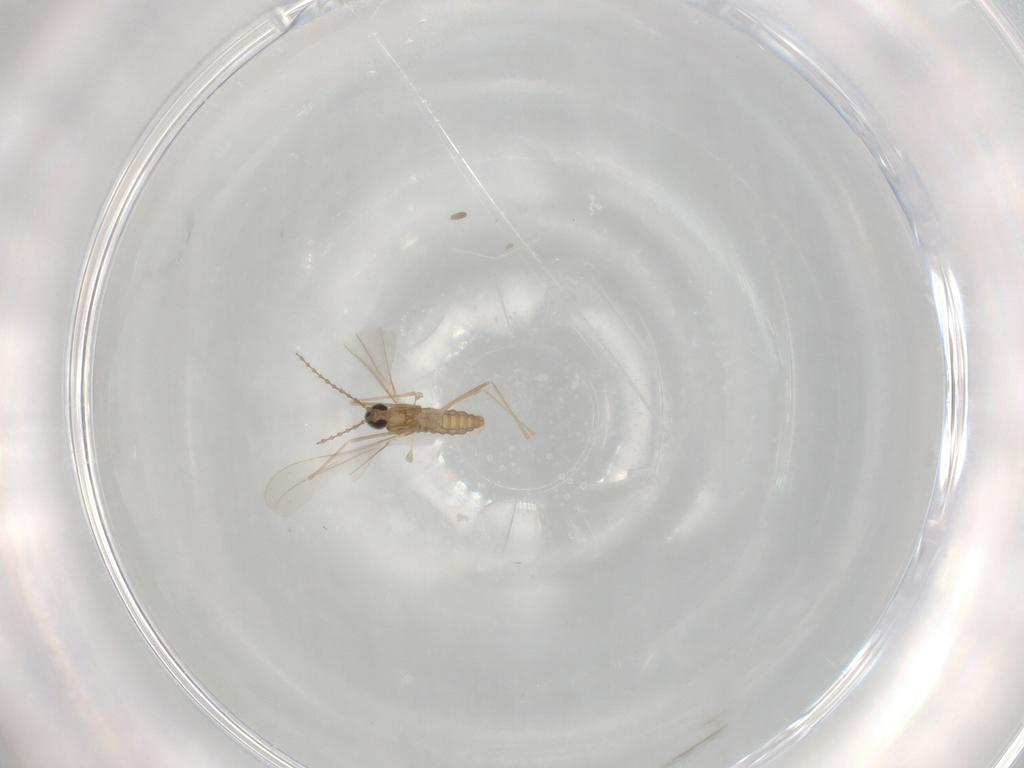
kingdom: Animalia
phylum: Arthropoda
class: Insecta
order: Diptera
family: Cecidomyiidae
